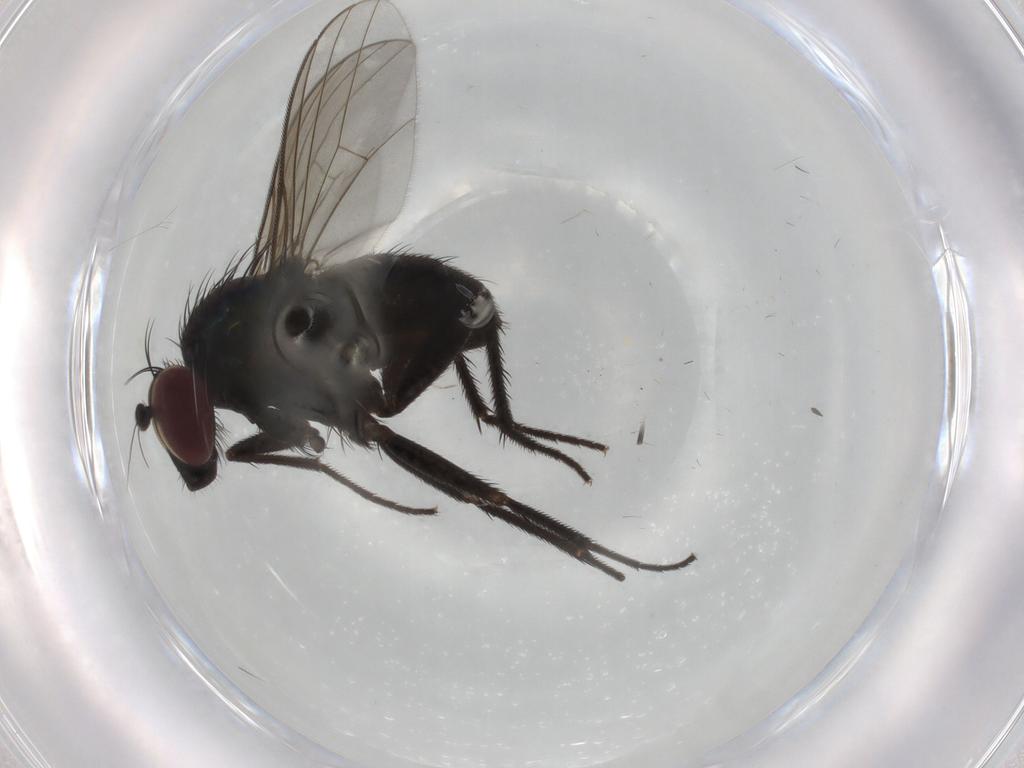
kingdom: Animalia
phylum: Arthropoda
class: Insecta
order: Diptera
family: Dolichopodidae
